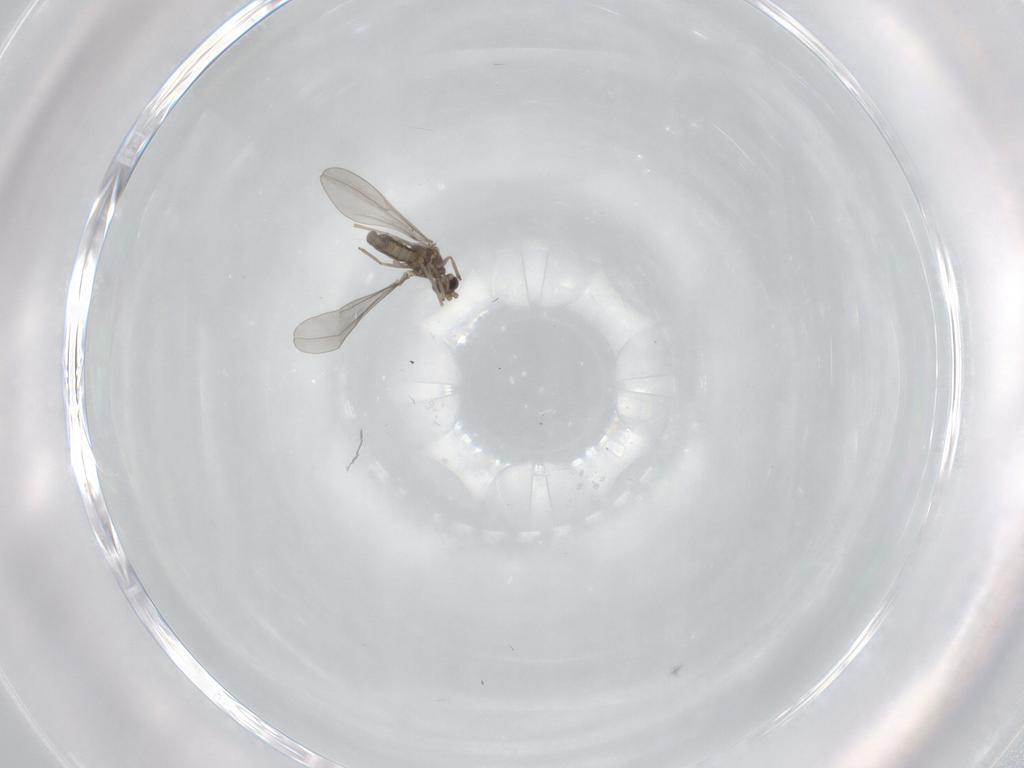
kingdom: Animalia
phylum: Arthropoda
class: Insecta
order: Diptera
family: Cecidomyiidae
